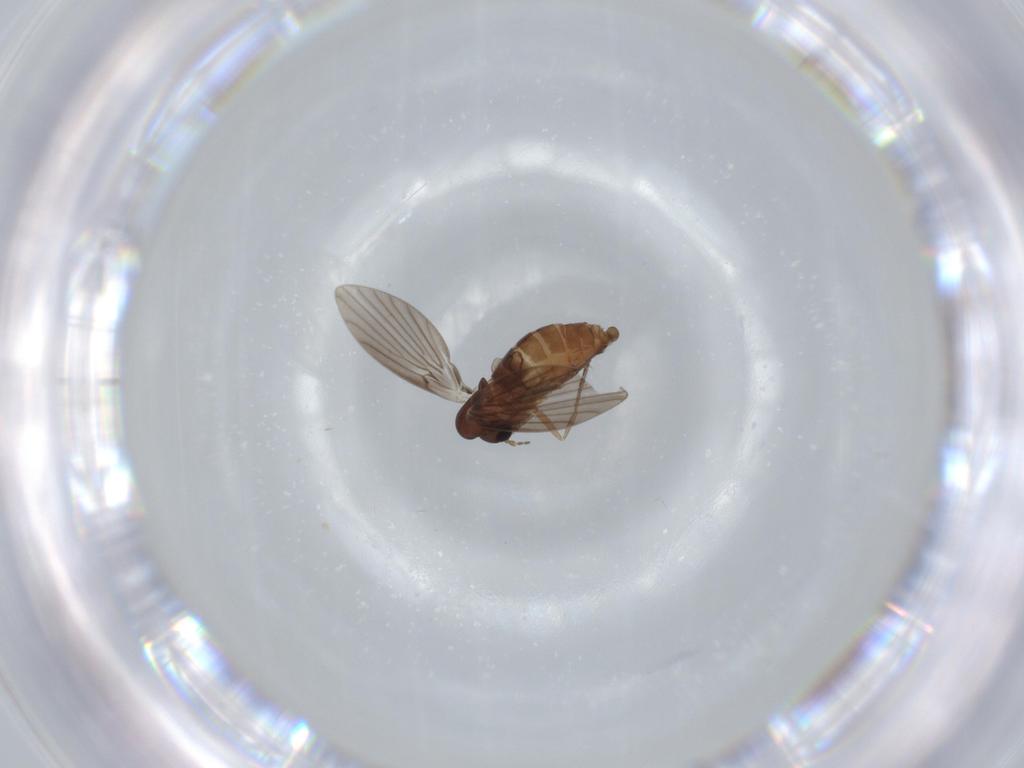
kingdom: Animalia
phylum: Arthropoda
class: Insecta
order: Diptera
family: Psychodidae
